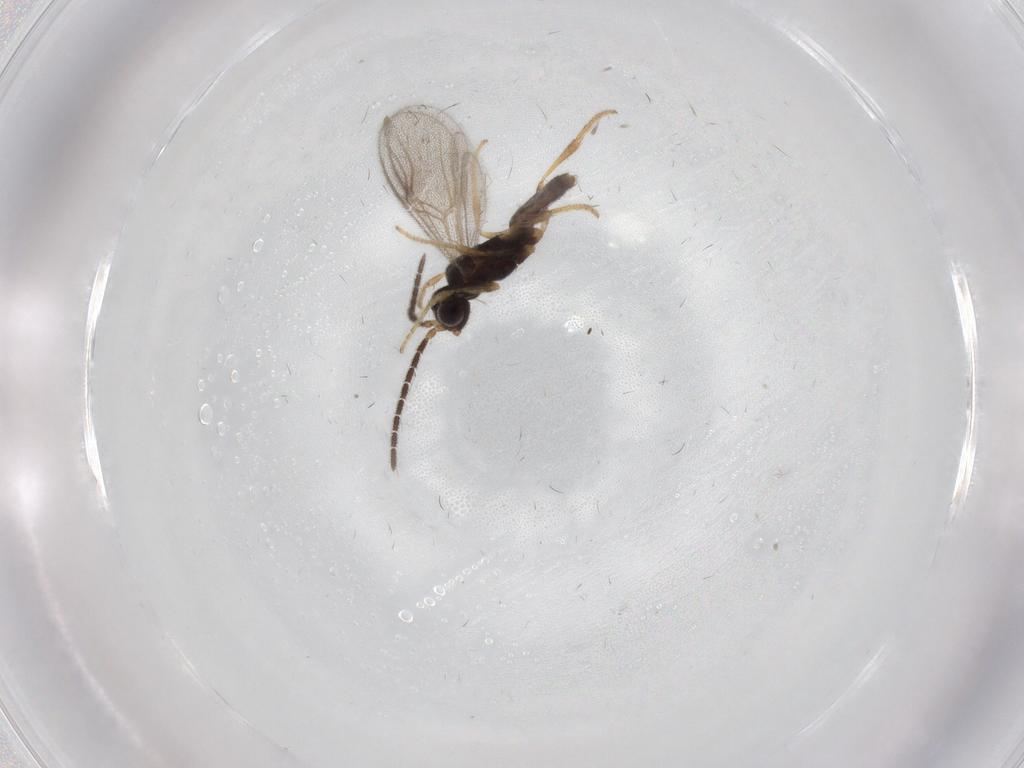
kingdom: Animalia
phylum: Arthropoda
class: Insecta
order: Hymenoptera
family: Dryinidae
